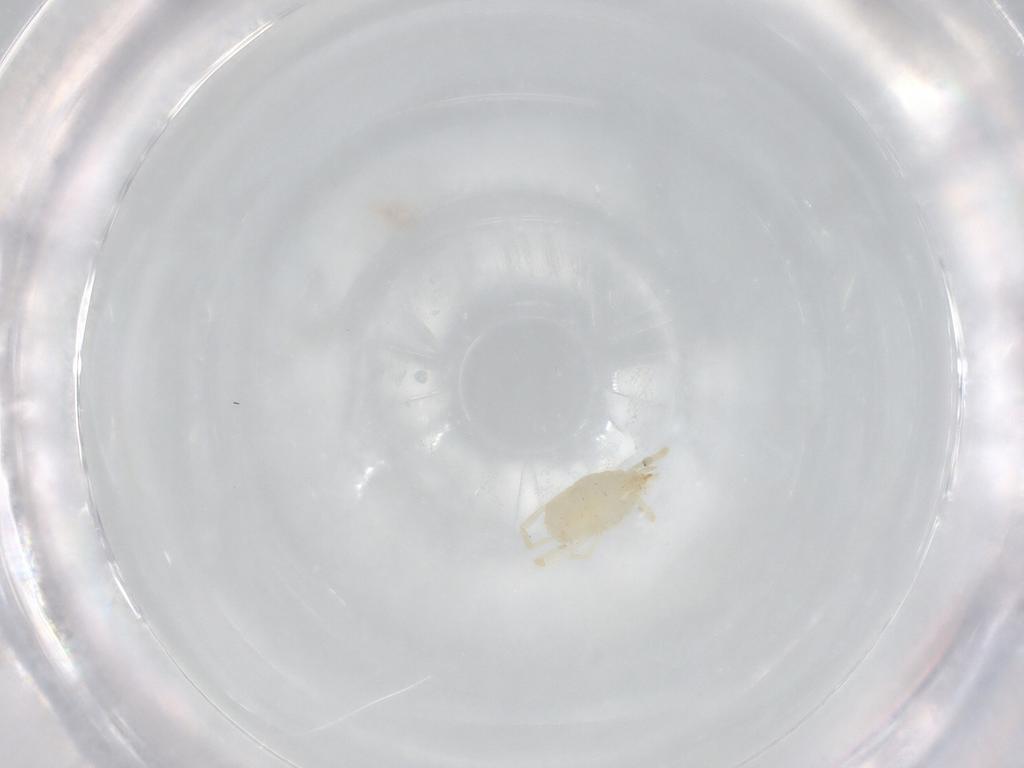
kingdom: Animalia
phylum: Arthropoda
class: Arachnida
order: Trombidiformes
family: Erythraeidae
